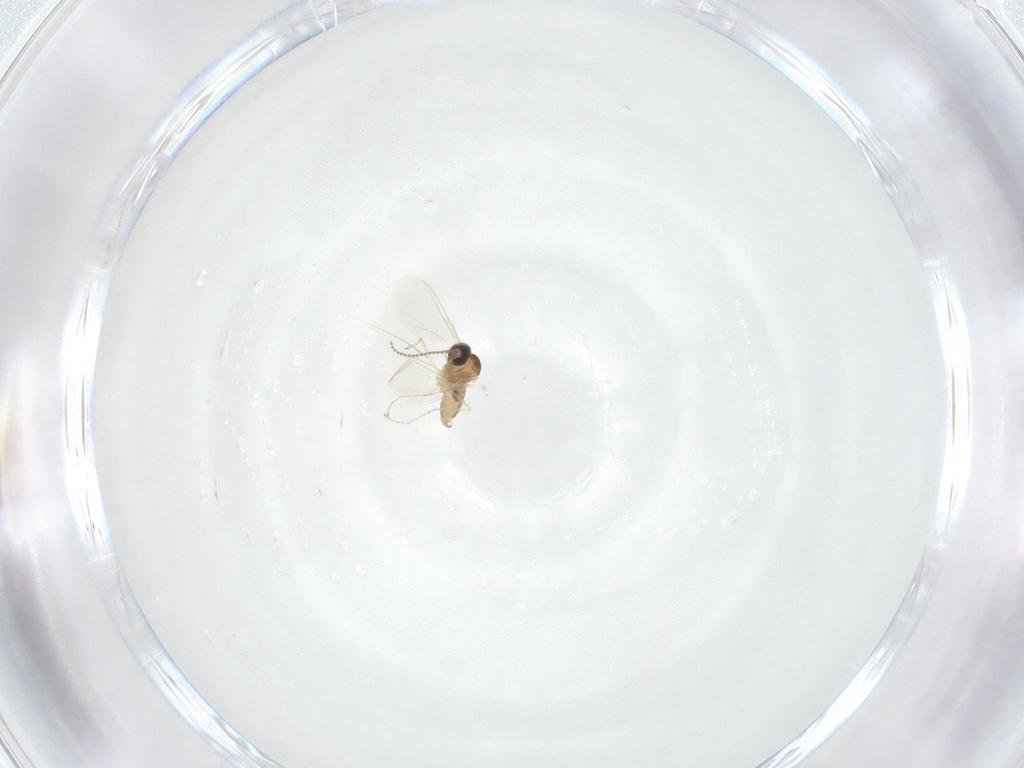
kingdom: Animalia
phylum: Arthropoda
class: Insecta
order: Diptera
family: Cecidomyiidae
